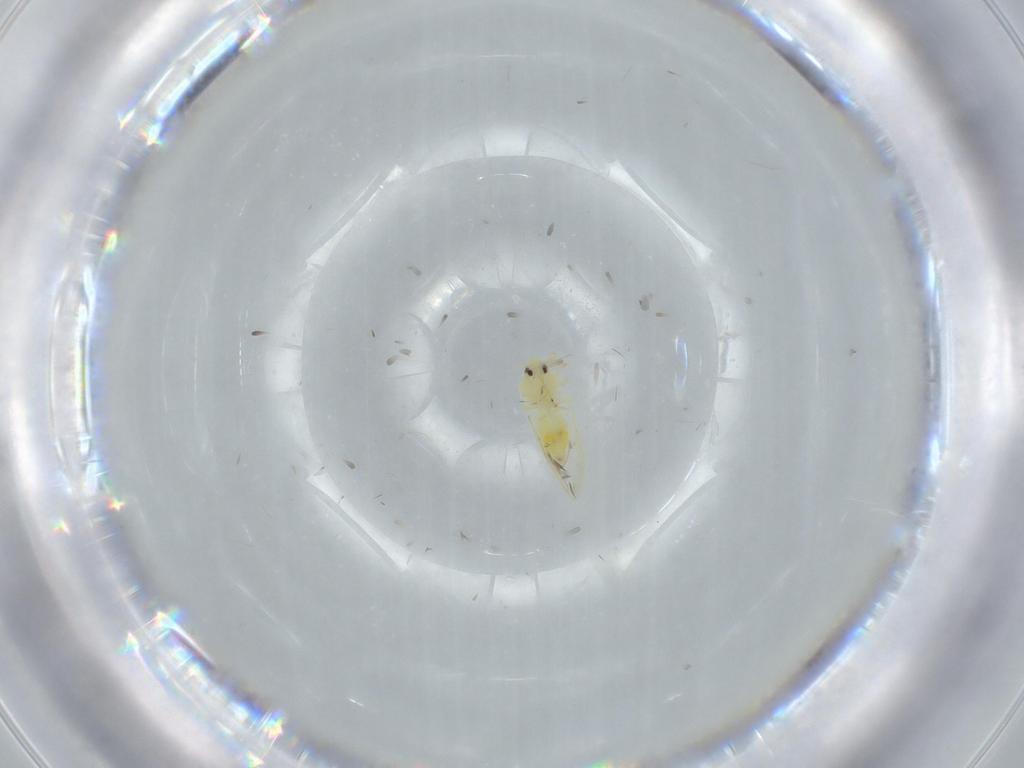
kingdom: Animalia
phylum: Arthropoda
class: Insecta
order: Hemiptera
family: Aleyrodidae
